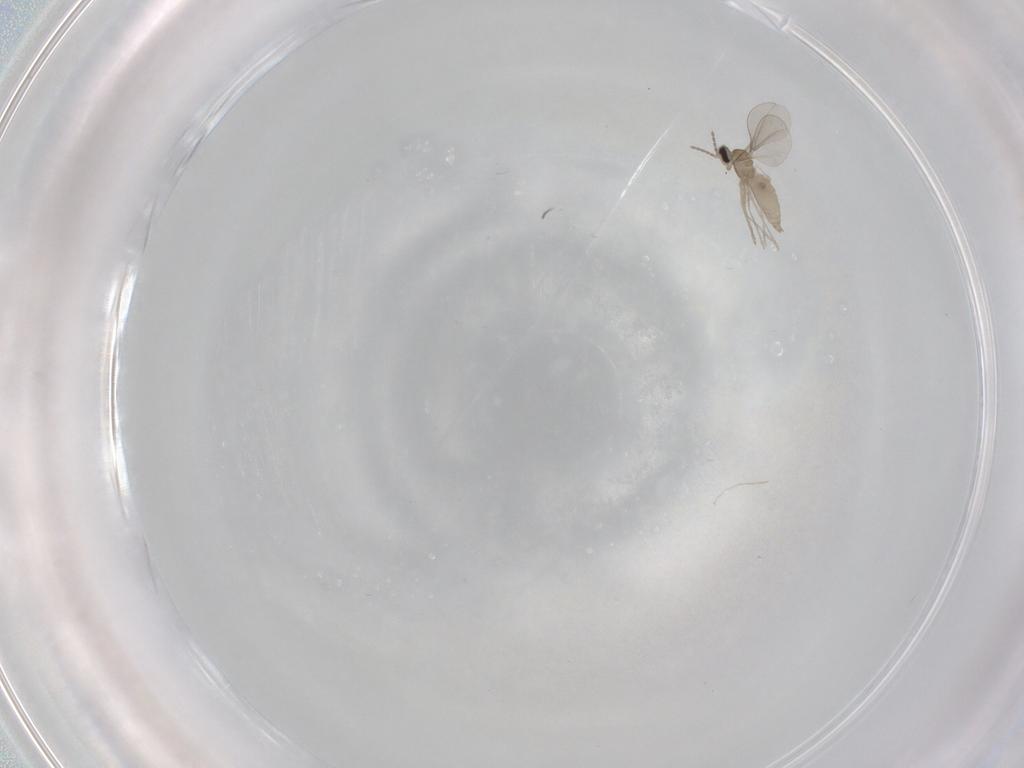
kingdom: Animalia
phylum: Arthropoda
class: Insecta
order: Diptera
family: Cecidomyiidae
